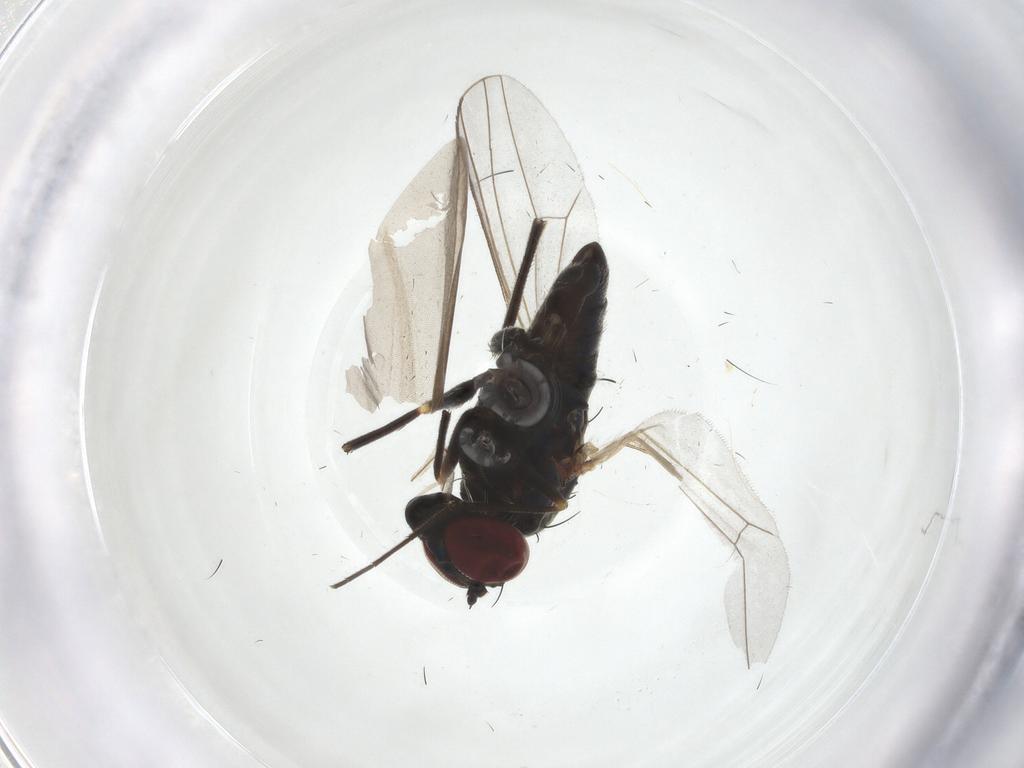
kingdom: Animalia
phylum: Arthropoda
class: Insecta
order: Diptera
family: Dolichopodidae
